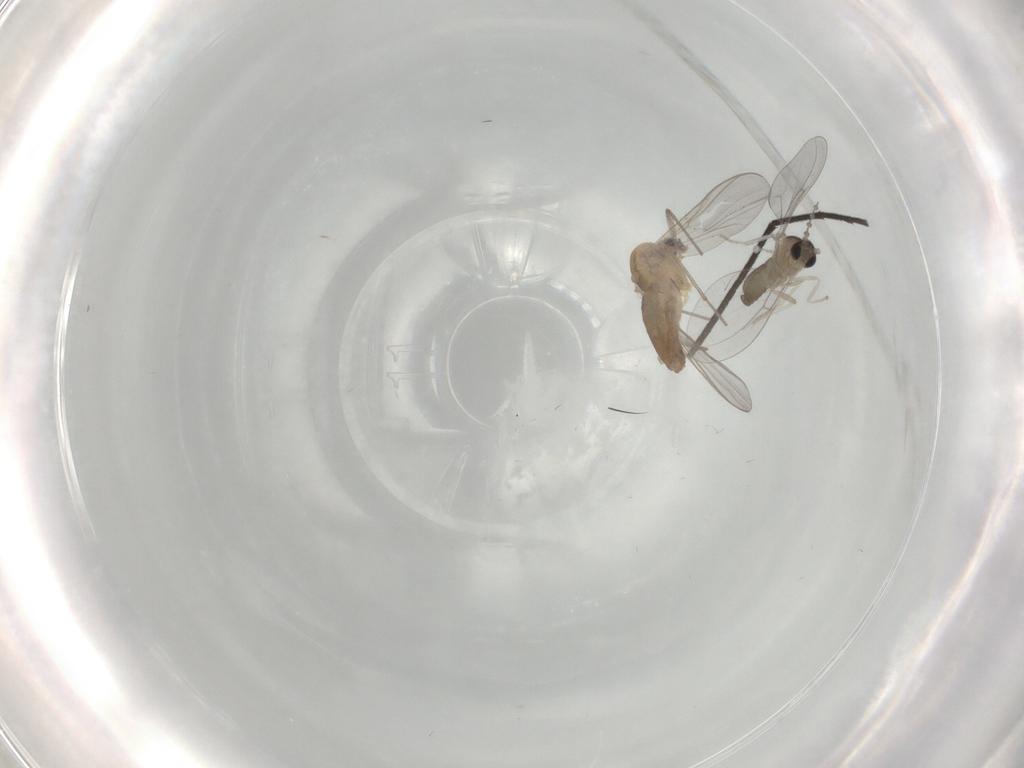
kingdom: Animalia
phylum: Arthropoda
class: Insecta
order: Diptera
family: Chironomidae
